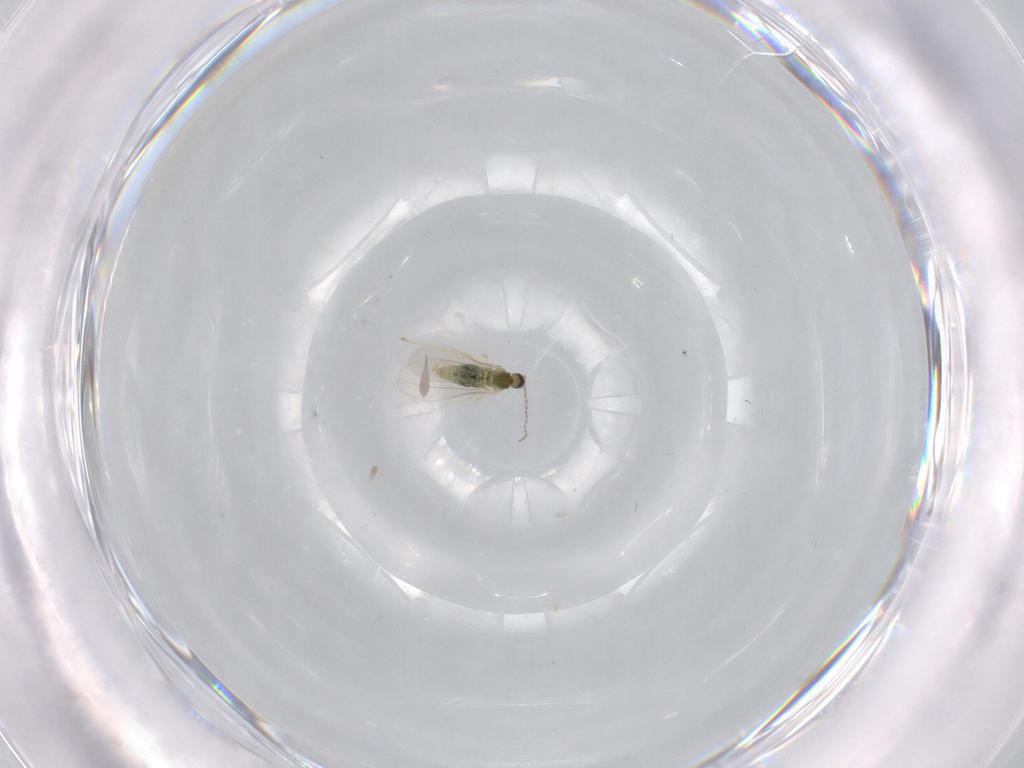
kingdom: Animalia
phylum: Arthropoda
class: Insecta
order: Diptera
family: Cecidomyiidae
